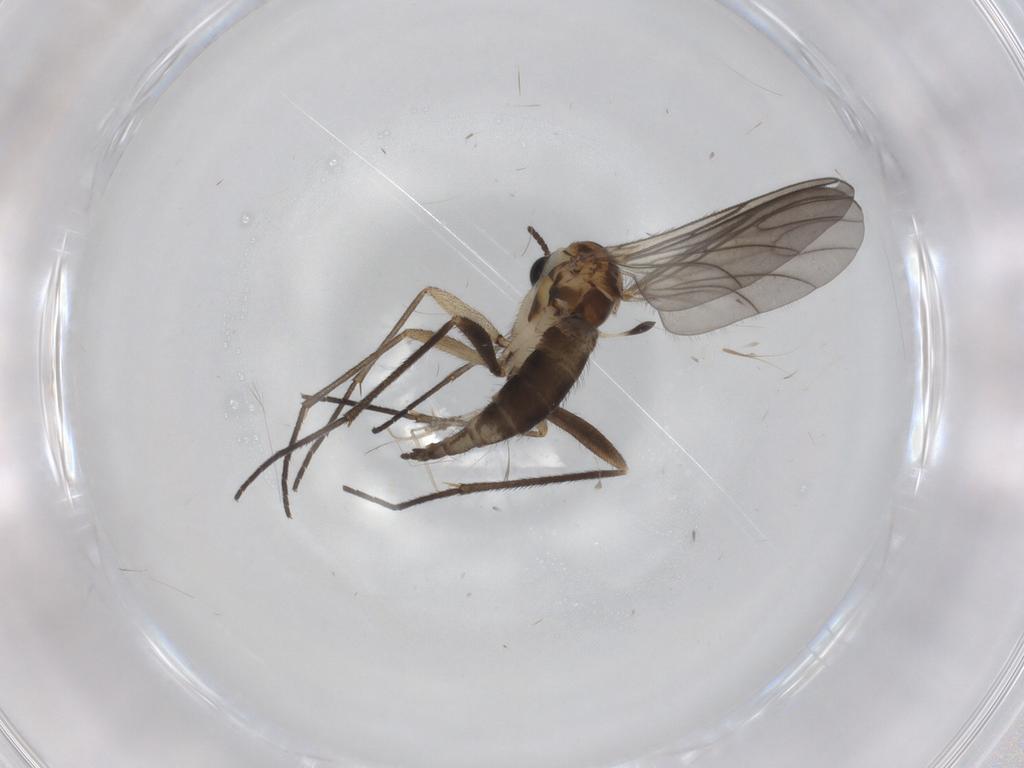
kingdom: Animalia
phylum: Arthropoda
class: Insecta
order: Diptera
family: Sciaridae
